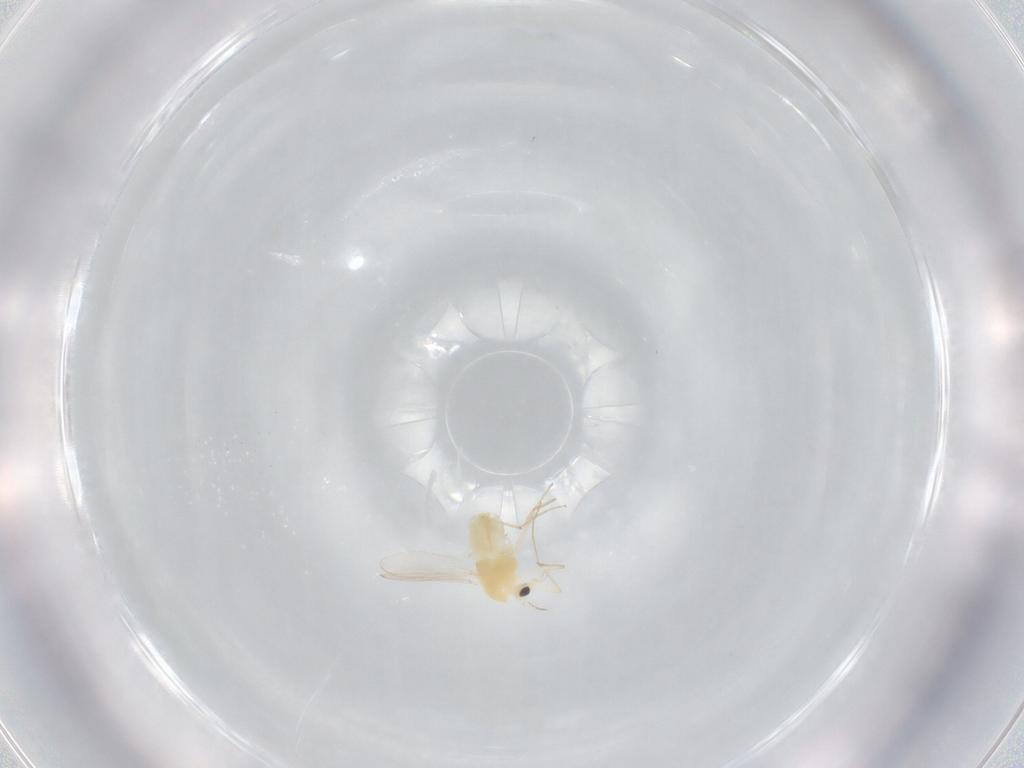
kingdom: Animalia
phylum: Arthropoda
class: Insecta
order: Diptera
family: Chironomidae
